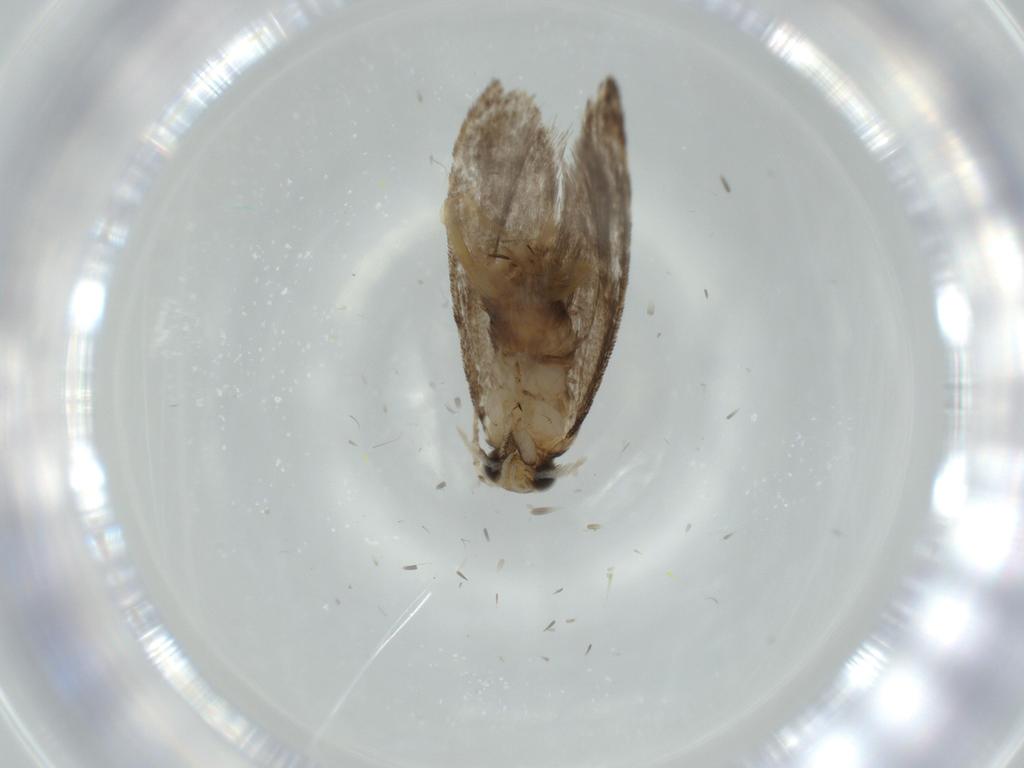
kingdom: Animalia
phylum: Arthropoda
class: Insecta
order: Lepidoptera
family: Tineidae
